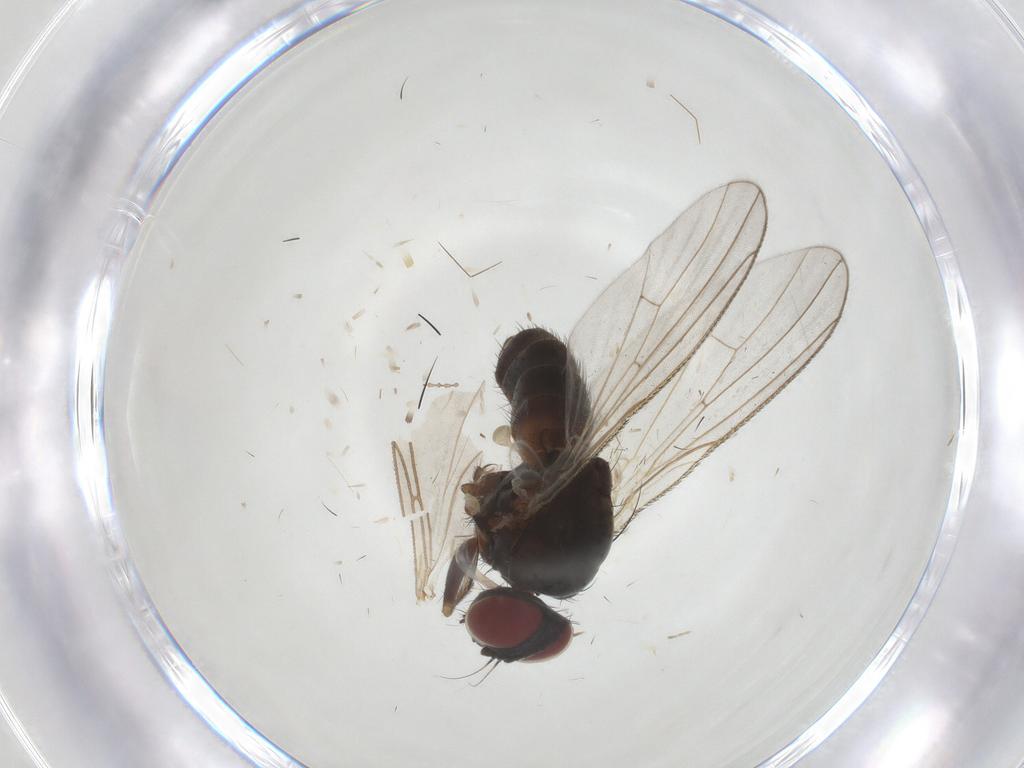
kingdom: Animalia
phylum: Arthropoda
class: Insecta
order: Diptera
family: Sciaridae
